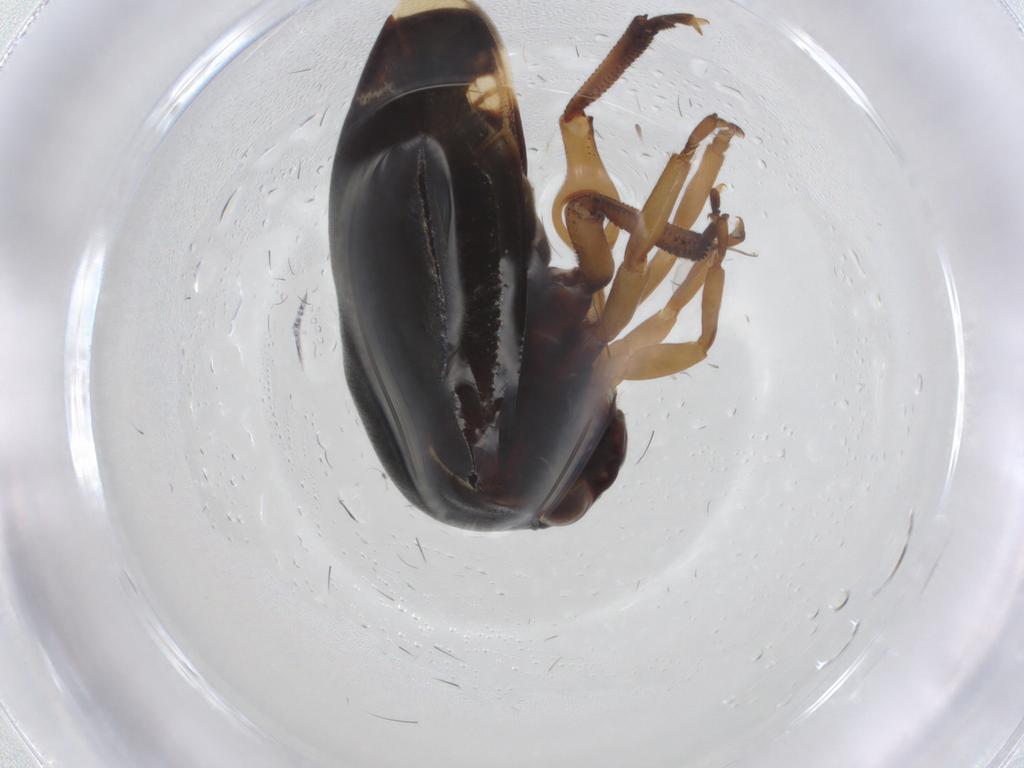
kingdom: Animalia
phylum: Arthropoda
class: Insecta
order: Hemiptera
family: Membracidae
